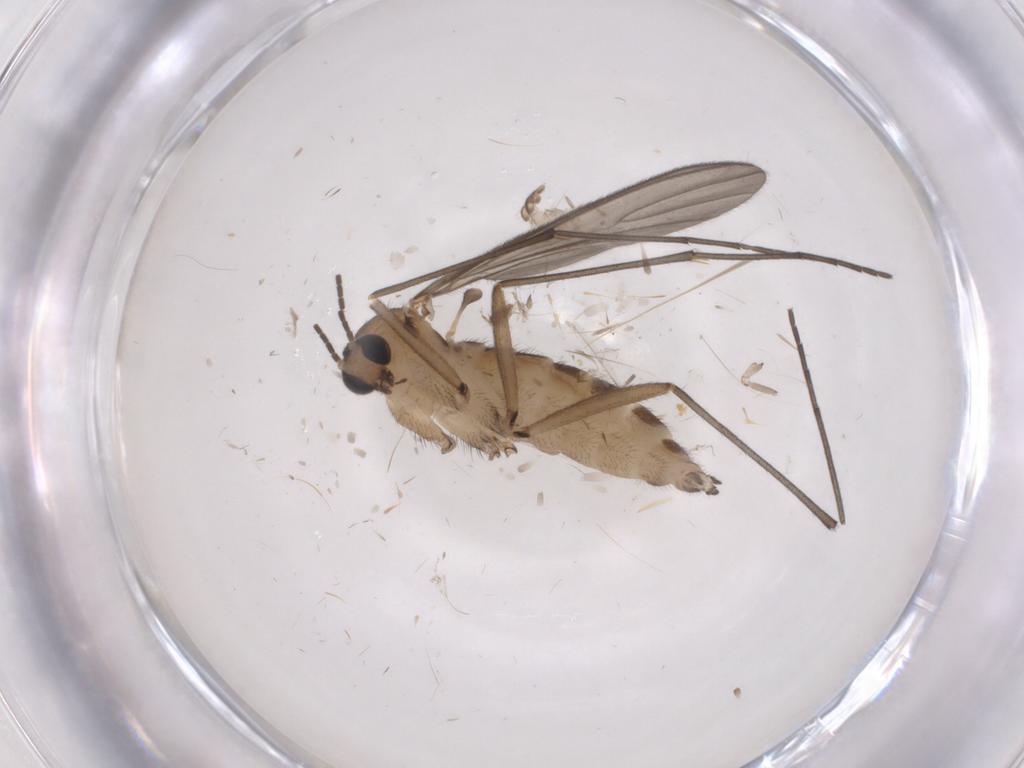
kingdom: Animalia
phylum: Arthropoda
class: Insecta
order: Diptera
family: Sciaridae
